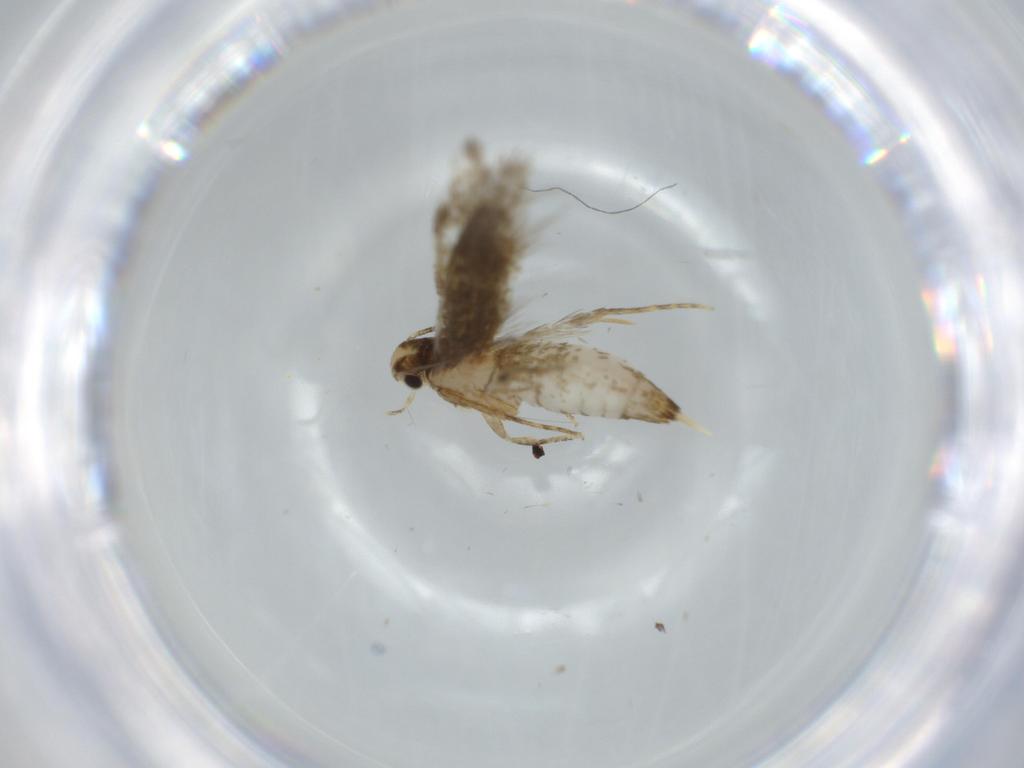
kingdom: Animalia
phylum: Arthropoda
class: Insecta
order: Lepidoptera
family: Tineidae
